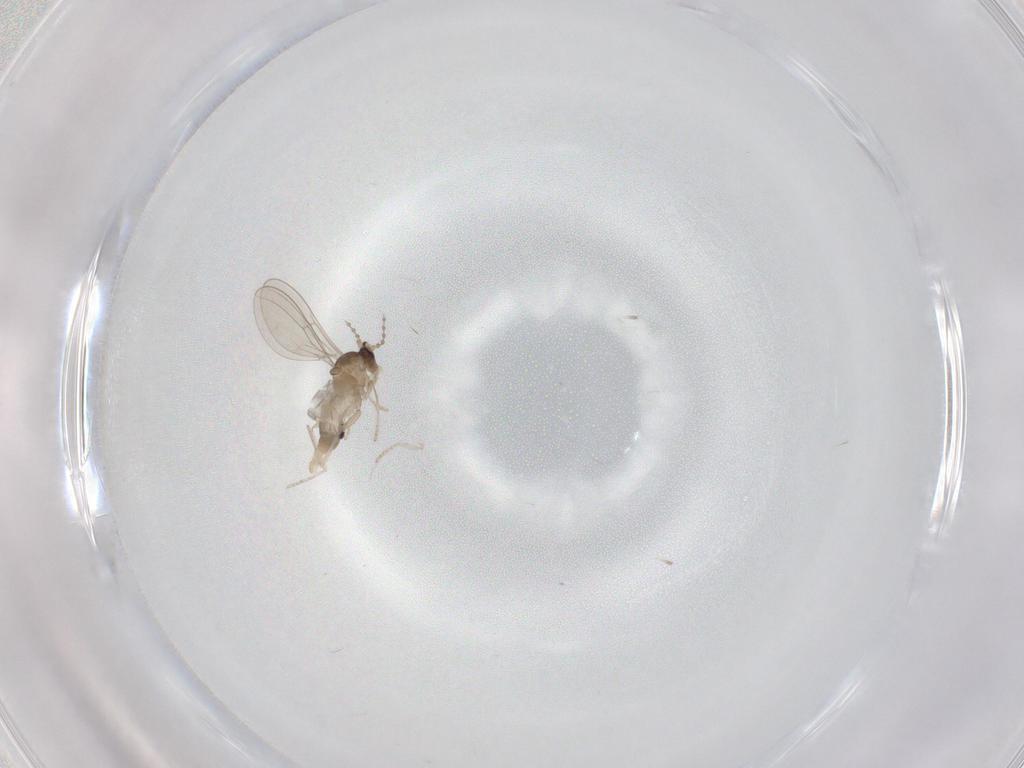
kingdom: Animalia
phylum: Arthropoda
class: Insecta
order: Diptera
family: Cecidomyiidae
